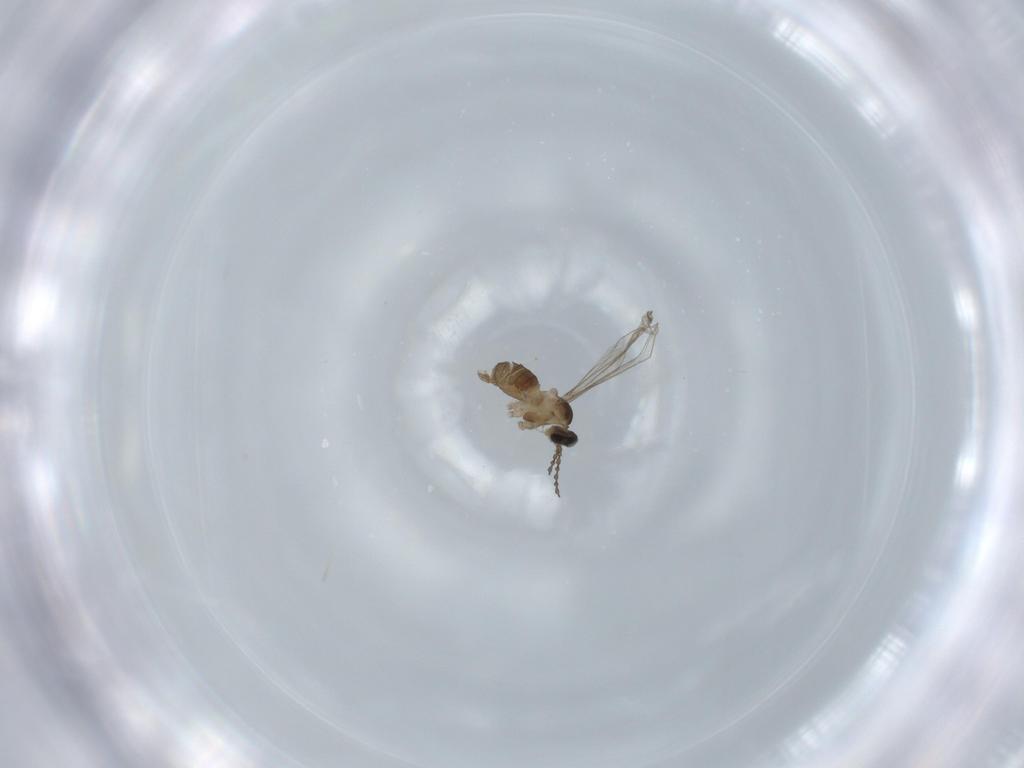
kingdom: Animalia
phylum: Arthropoda
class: Insecta
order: Diptera
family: Cecidomyiidae
